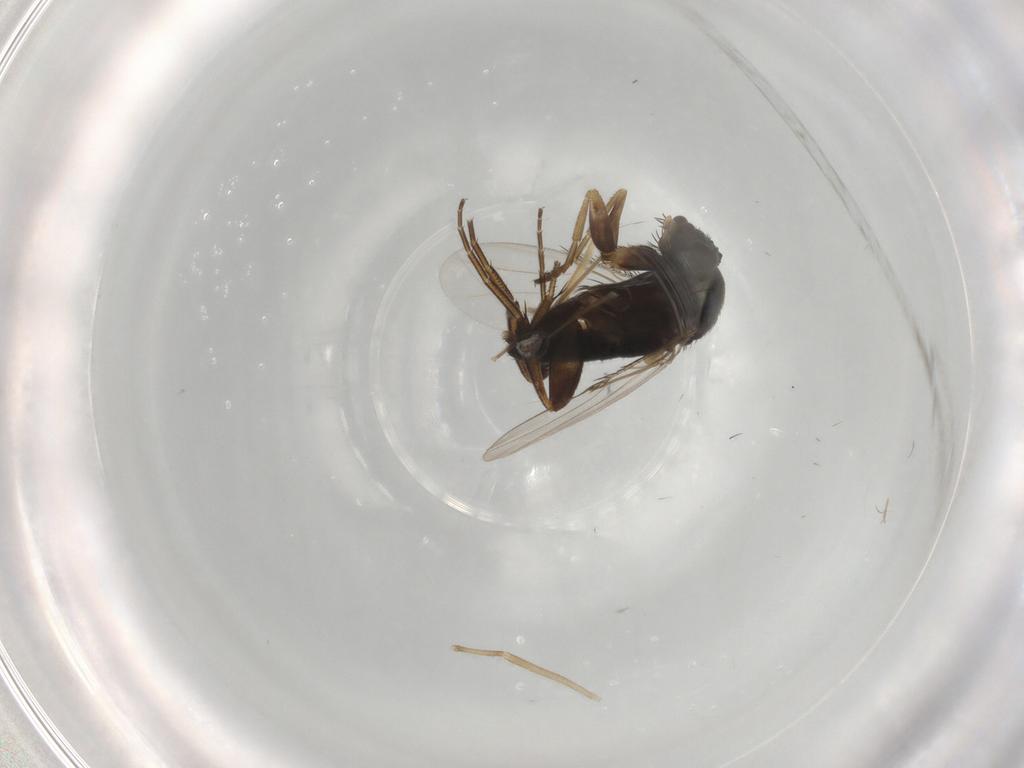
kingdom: Animalia
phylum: Arthropoda
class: Insecta
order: Diptera
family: Phoridae
